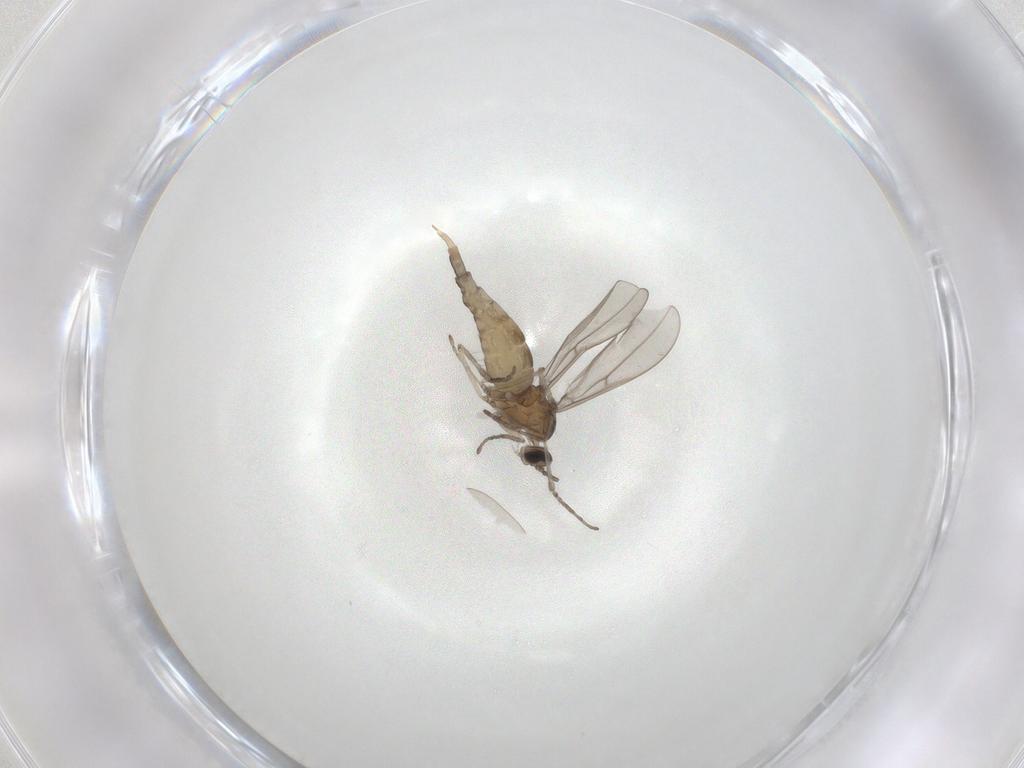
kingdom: Animalia
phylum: Arthropoda
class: Insecta
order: Diptera
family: Cecidomyiidae
